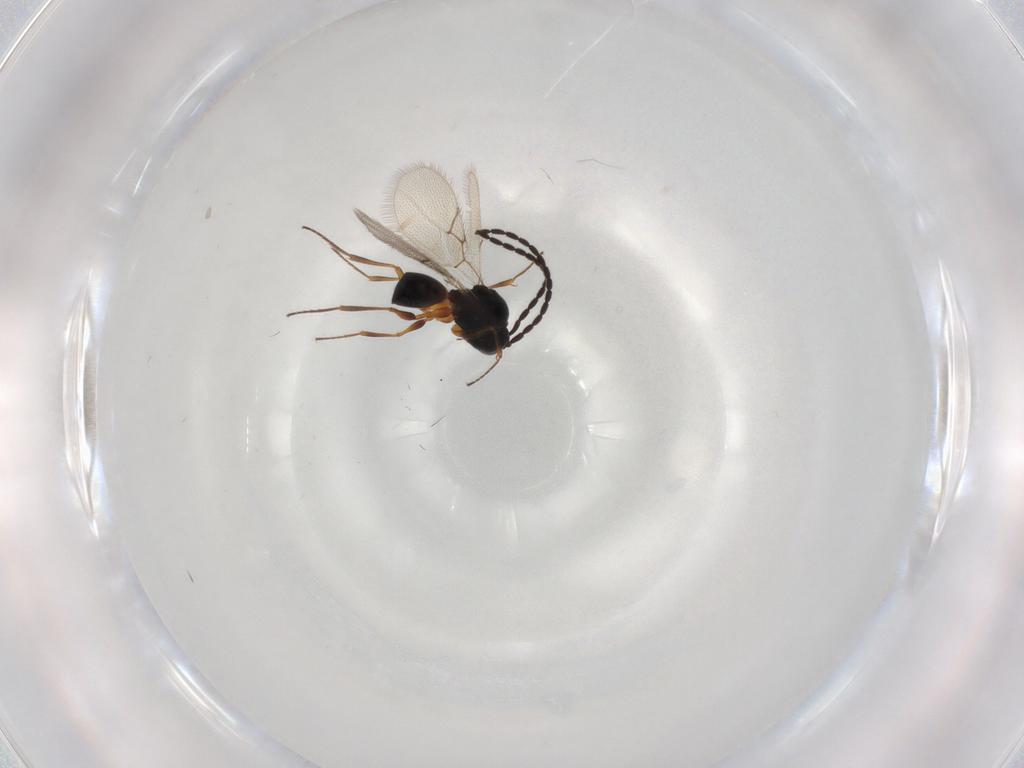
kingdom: Animalia
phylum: Arthropoda
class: Insecta
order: Hymenoptera
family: Figitidae
